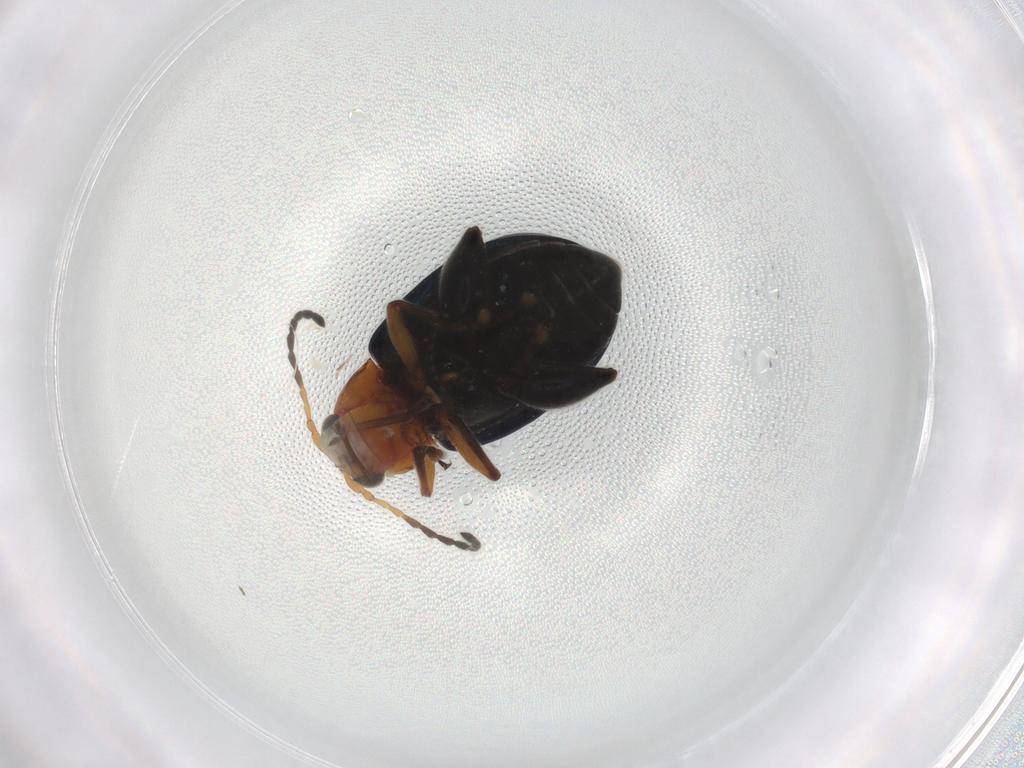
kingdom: Animalia
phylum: Arthropoda
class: Insecta
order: Coleoptera
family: Chrysomelidae
